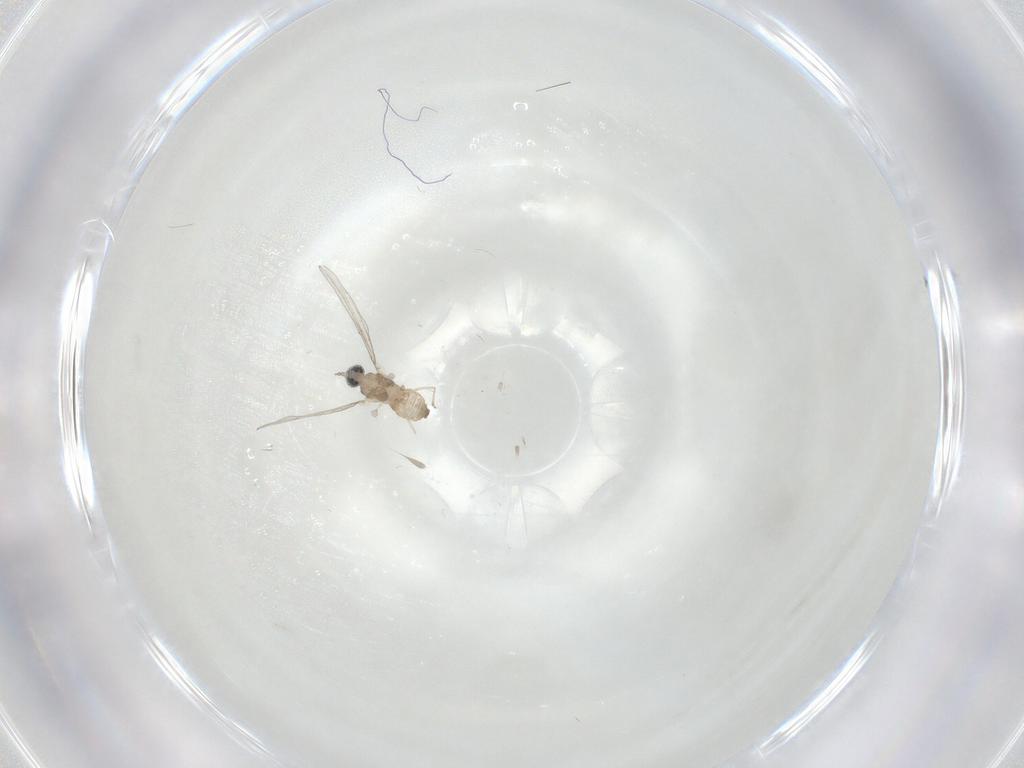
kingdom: Animalia
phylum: Arthropoda
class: Insecta
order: Diptera
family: Cecidomyiidae
